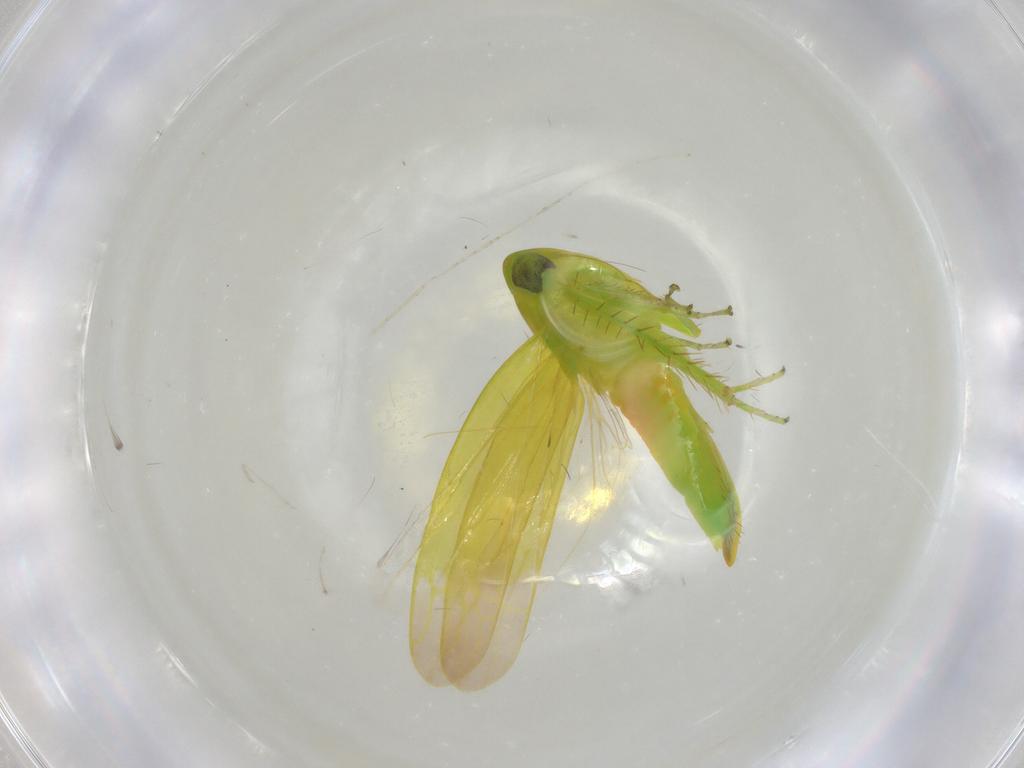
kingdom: Animalia
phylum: Arthropoda
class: Insecta
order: Hemiptera
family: Cicadellidae
